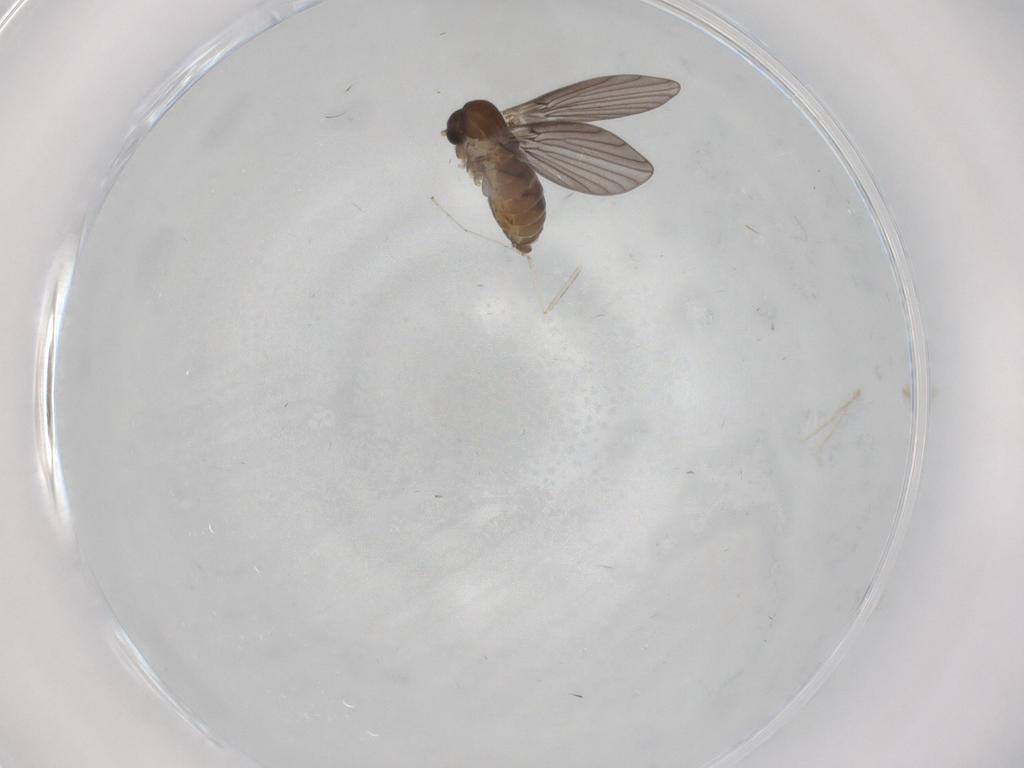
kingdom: Animalia
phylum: Arthropoda
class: Insecta
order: Diptera
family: Psychodidae
